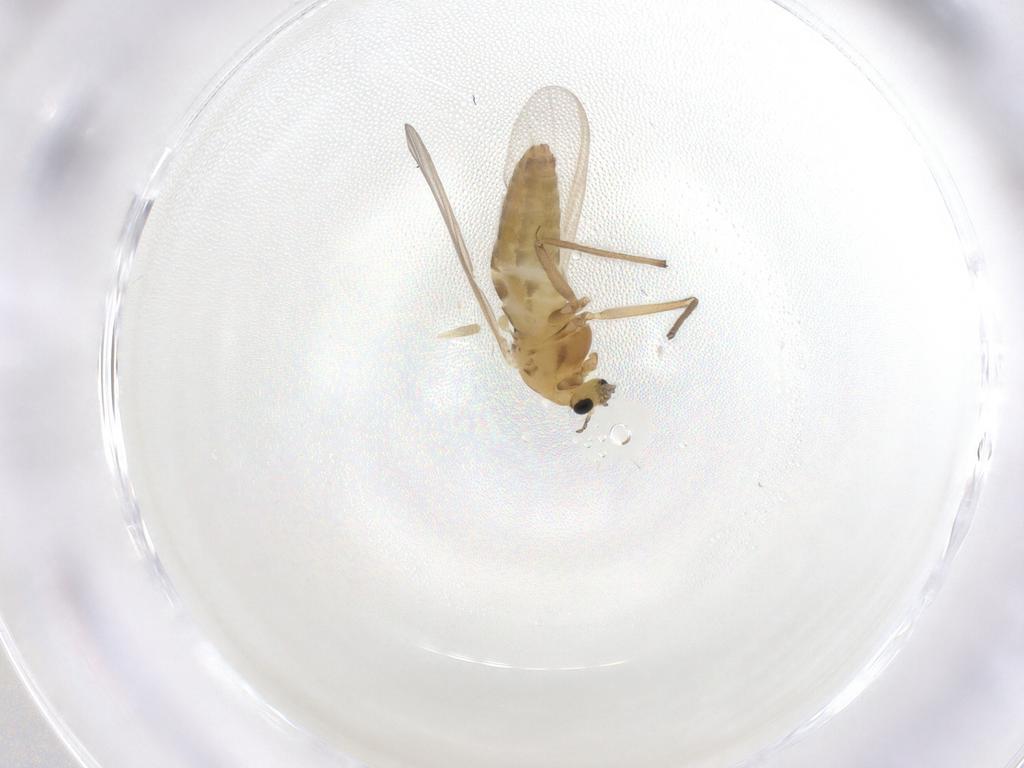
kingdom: Animalia
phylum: Arthropoda
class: Insecta
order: Diptera
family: Chironomidae
